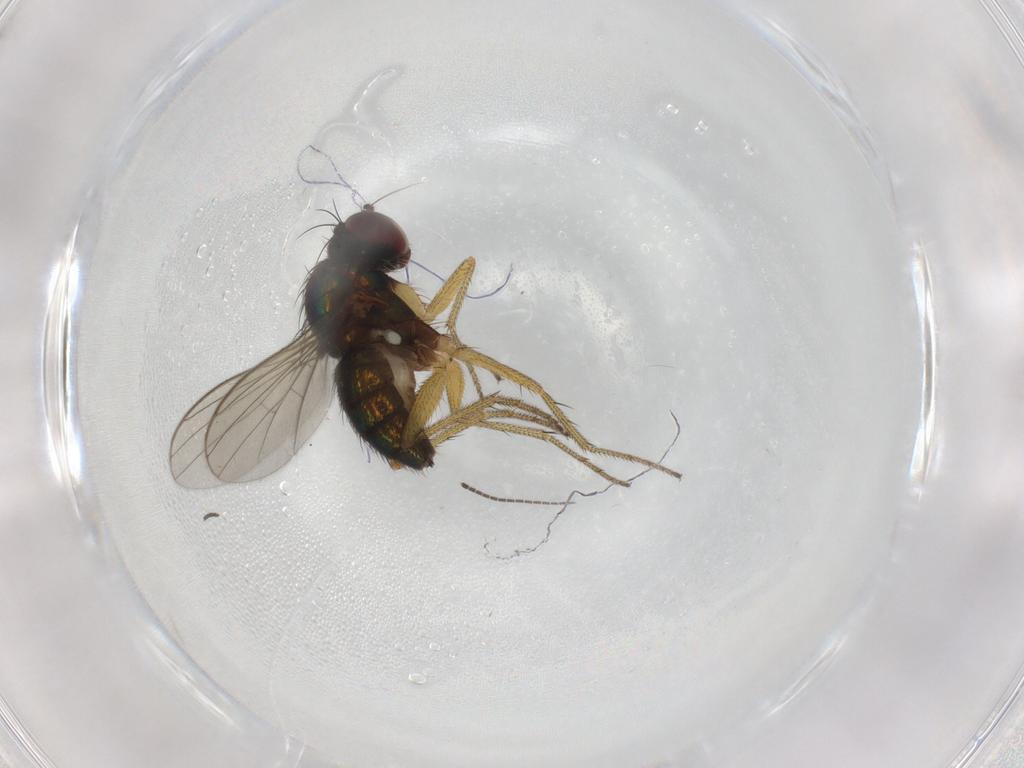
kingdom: Animalia
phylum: Arthropoda
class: Insecta
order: Diptera
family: Dolichopodidae
